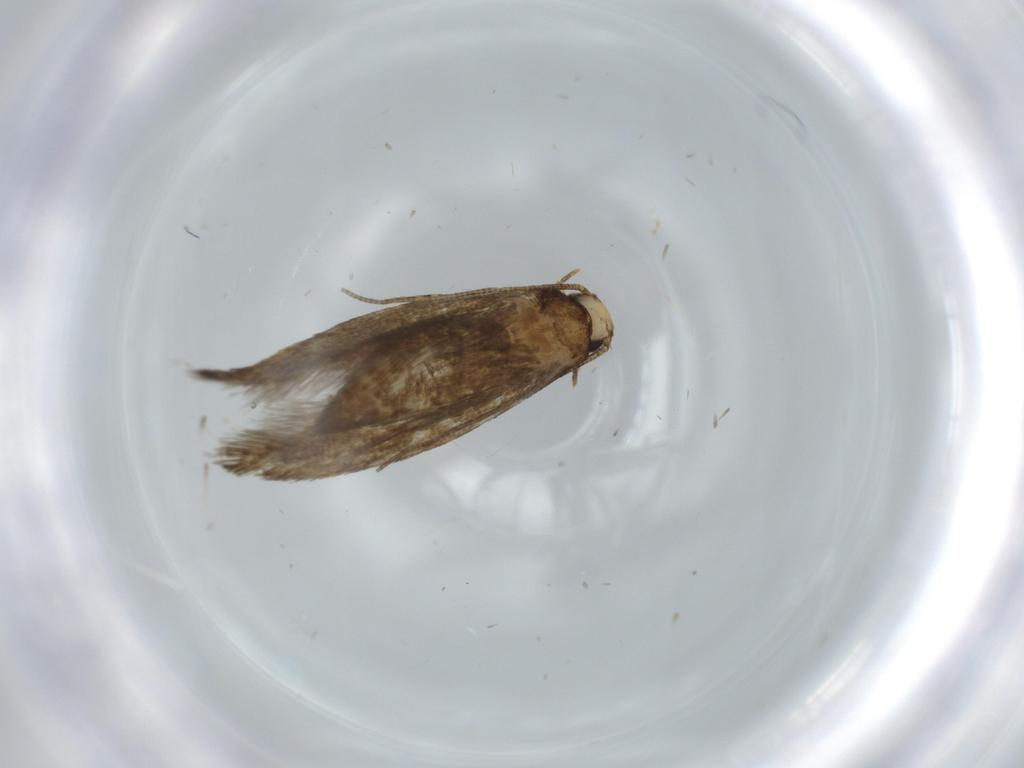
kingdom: Animalia
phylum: Arthropoda
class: Insecta
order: Lepidoptera
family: Tineidae
